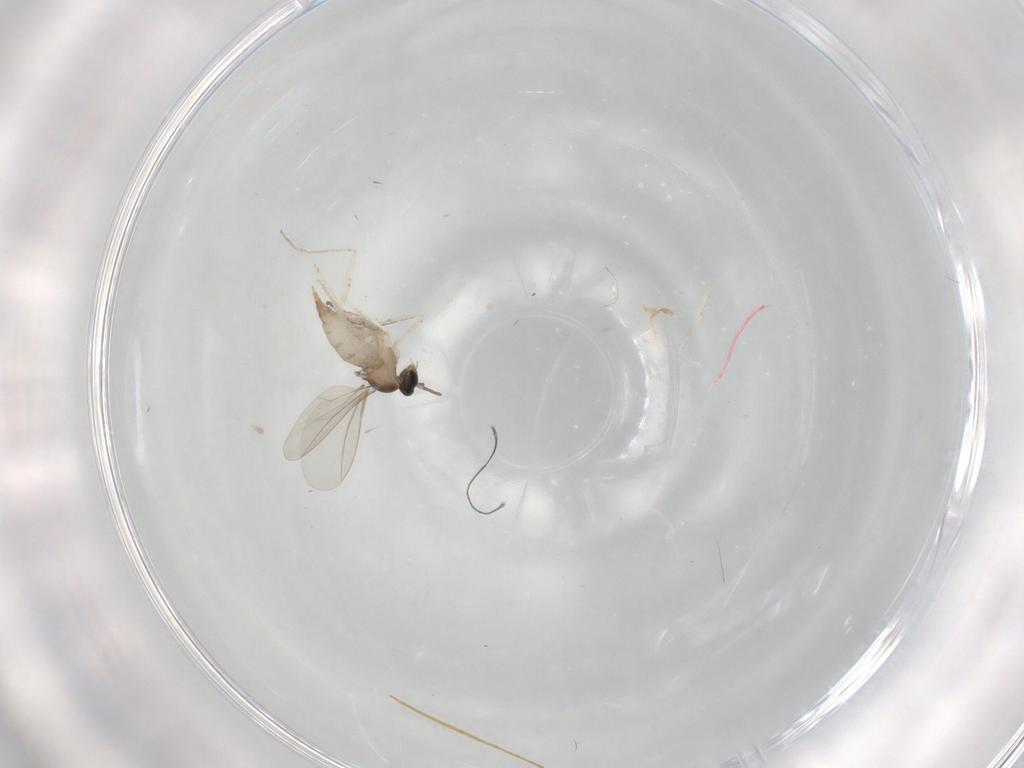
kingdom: Animalia
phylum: Arthropoda
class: Insecta
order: Diptera
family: Cecidomyiidae
